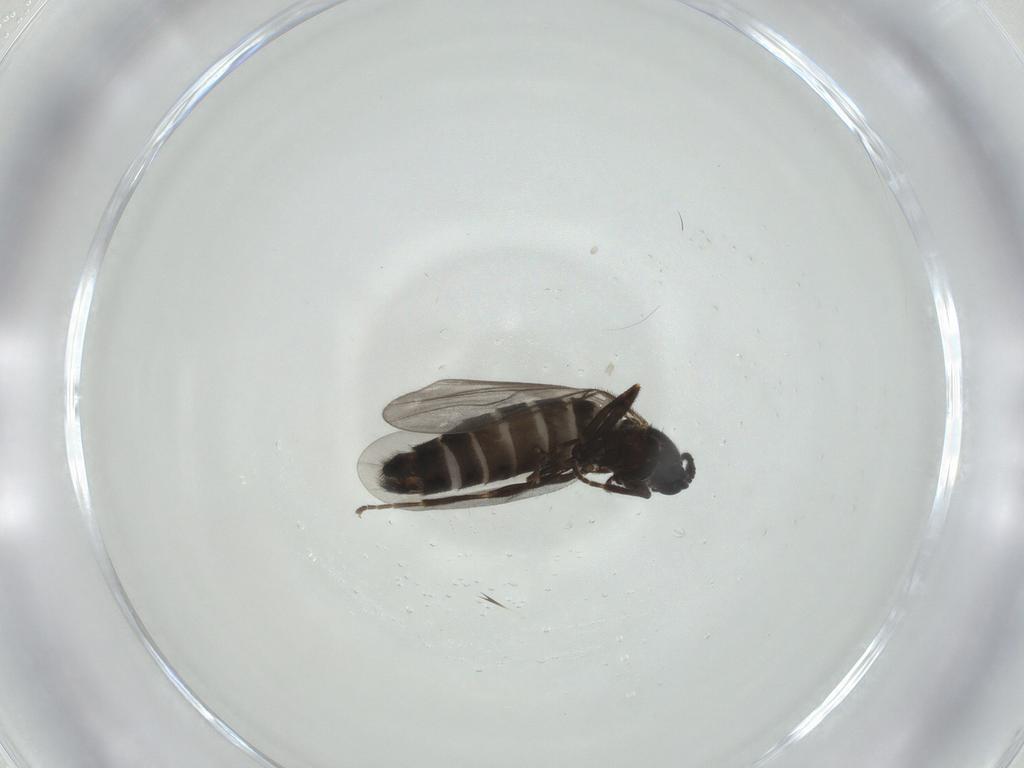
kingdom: Animalia
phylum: Arthropoda
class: Insecta
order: Diptera
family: Scatopsidae
